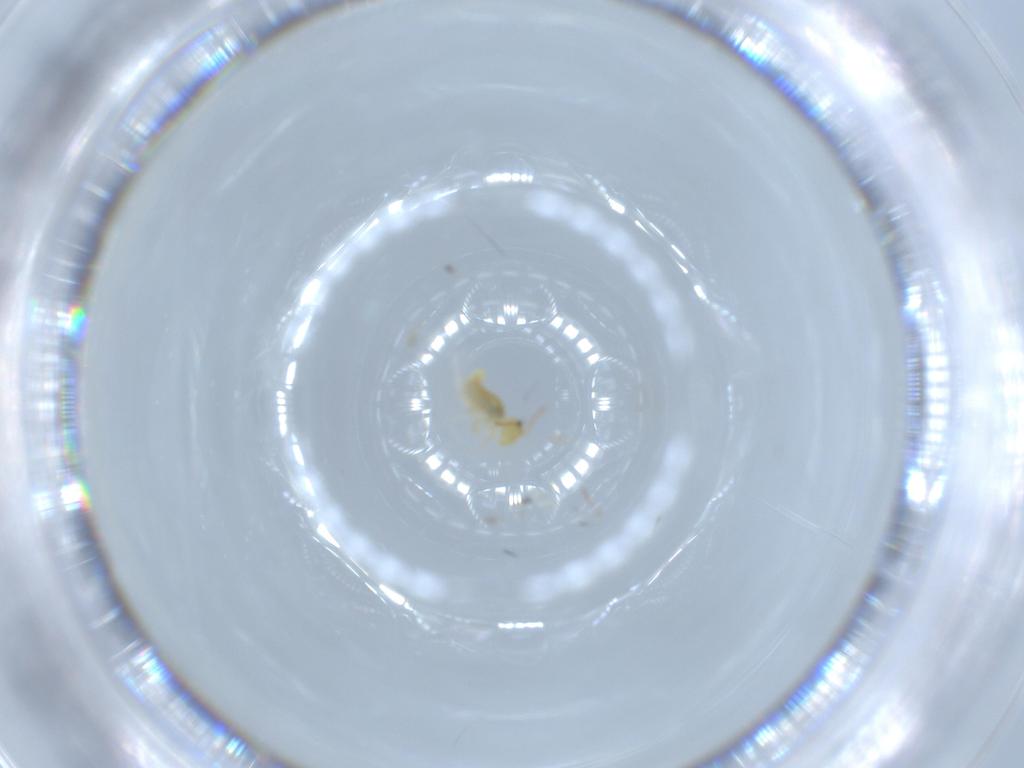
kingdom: Animalia
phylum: Arthropoda
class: Collembola
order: Symphypleona
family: Bourletiellidae
